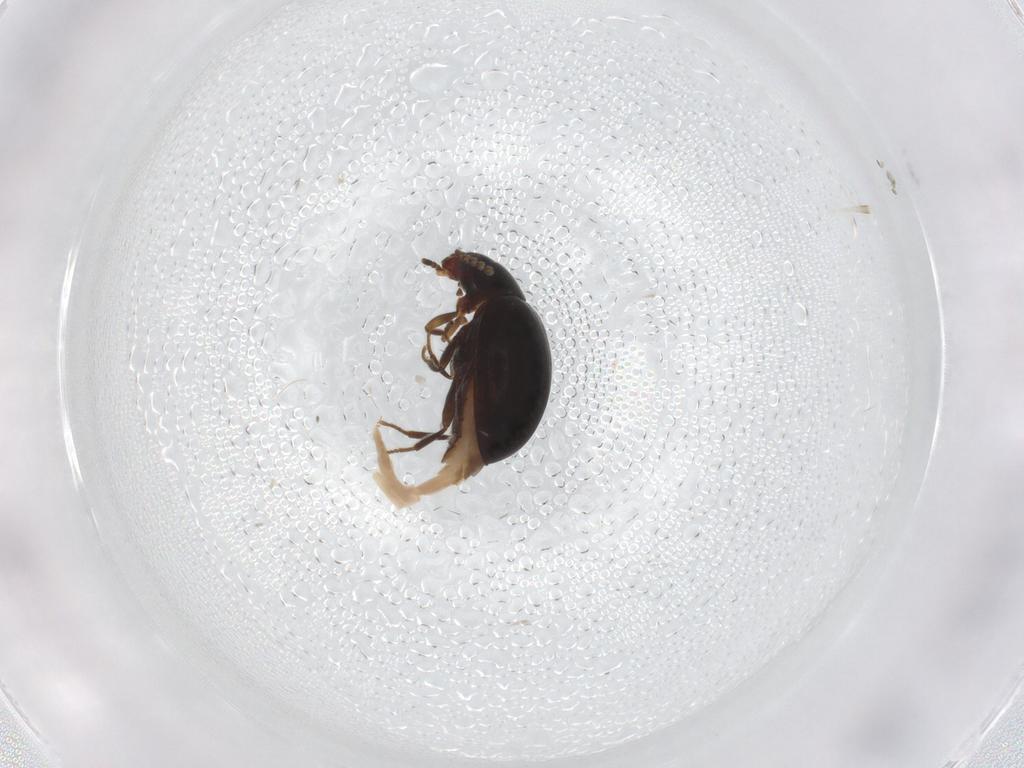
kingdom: Animalia
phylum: Arthropoda
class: Insecta
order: Coleoptera
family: Tenebrionidae
